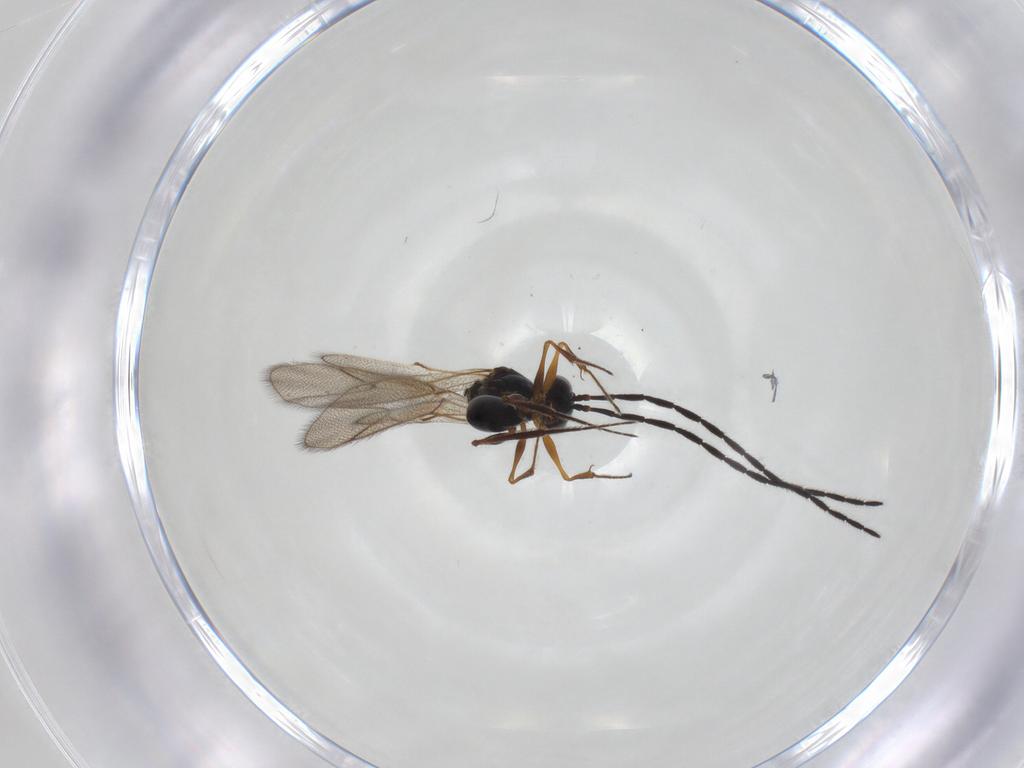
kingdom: Animalia
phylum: Arthropoda
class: Insecta
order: Hymenoptera
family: Figitidae
